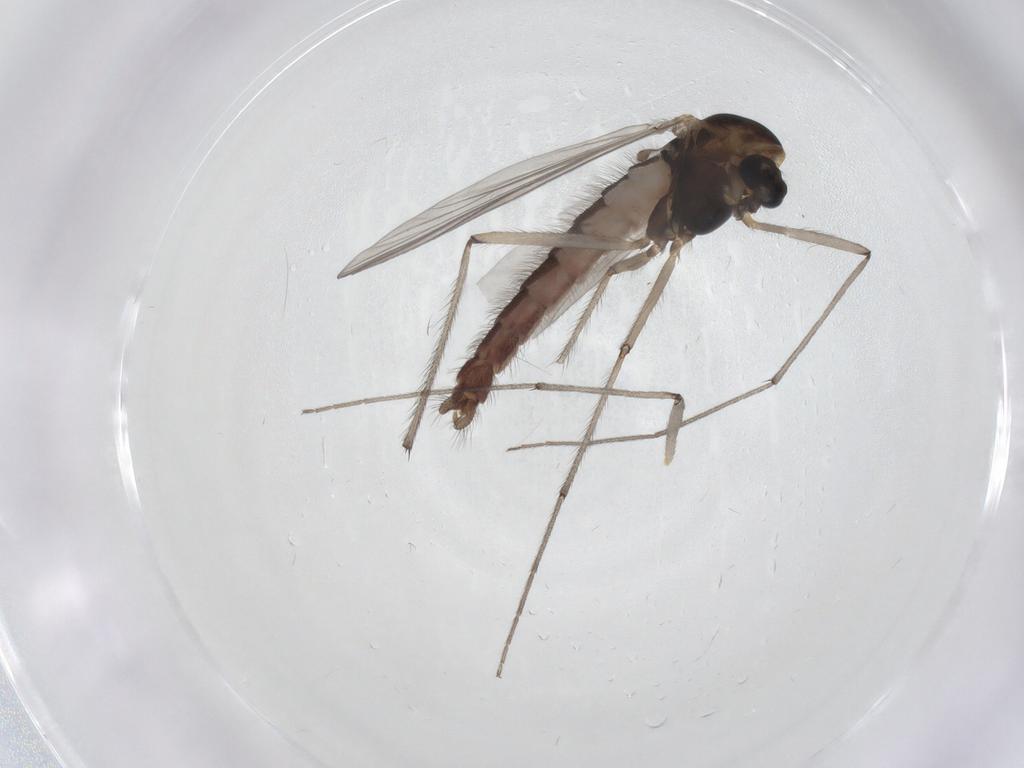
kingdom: Animalia
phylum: Arthropoda
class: Insecta
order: Diptera
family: Chironomidae
